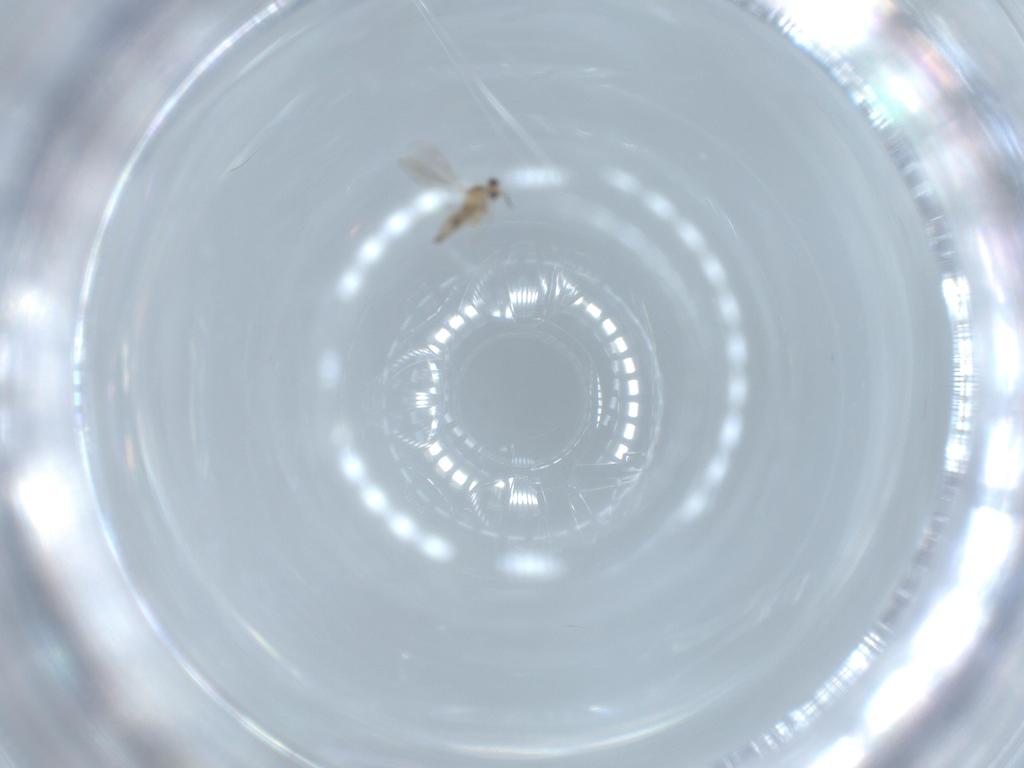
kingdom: Animalia
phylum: Arthropoda
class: Insecta
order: Diptera
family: Cecidomyiidae
